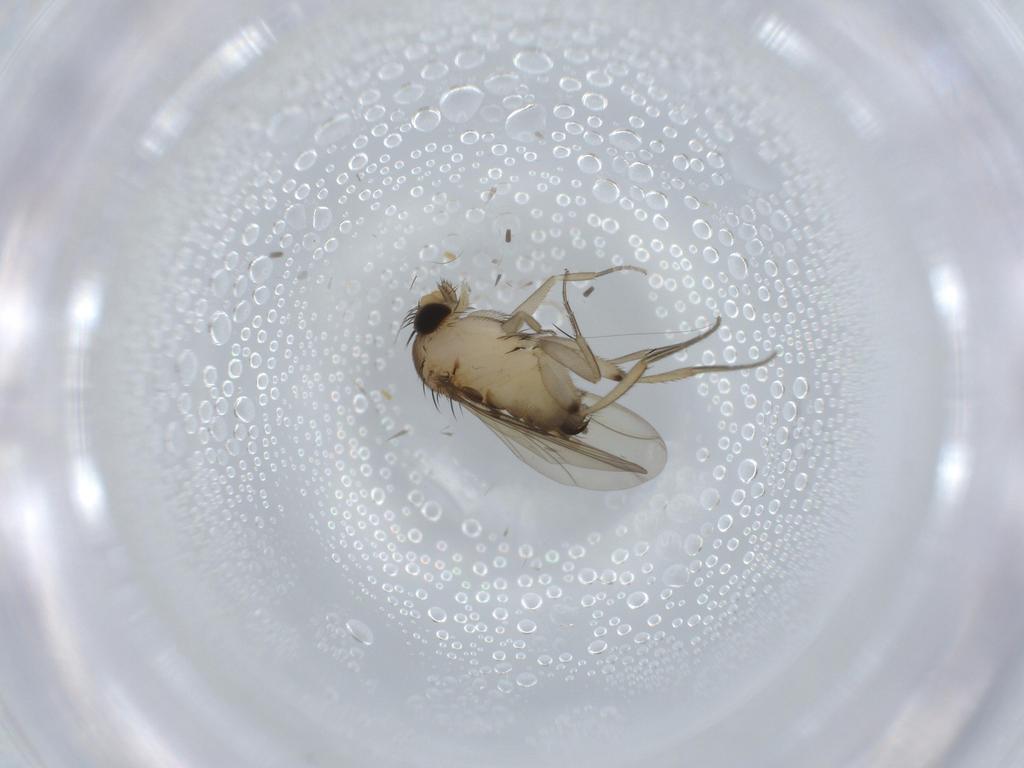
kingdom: Animalia
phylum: Arthropoda
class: Insecta
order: Diptera
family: Phoridae
